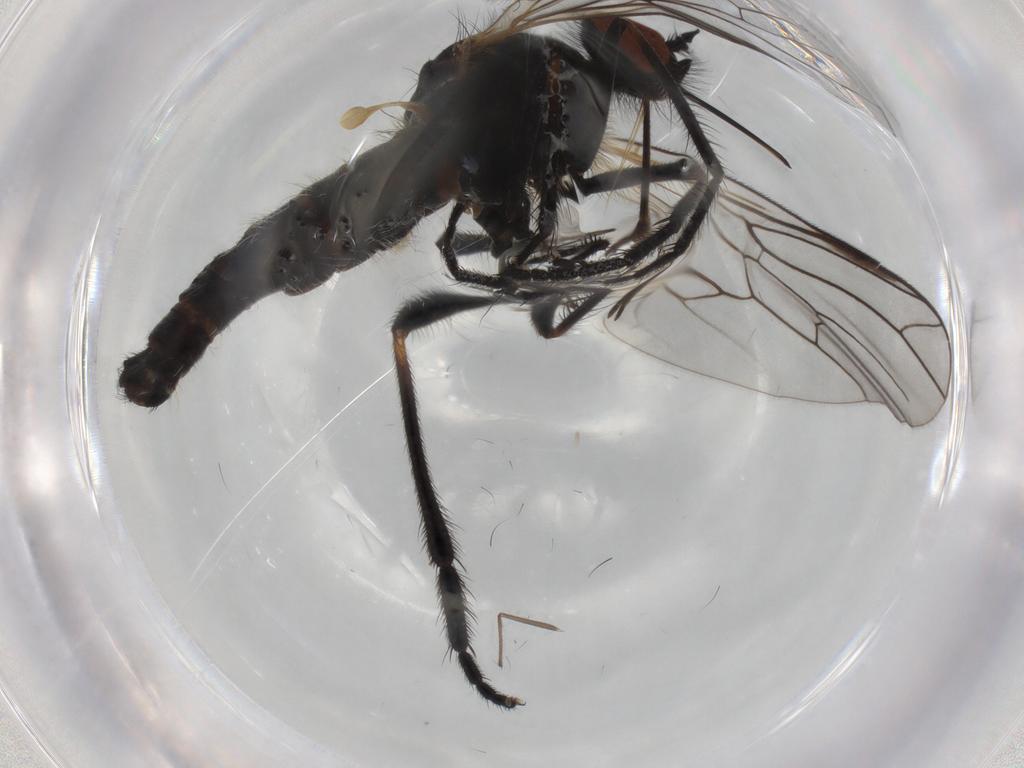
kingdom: Animalia
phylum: Arthropoda
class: Insecta
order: Diptera
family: Empididae
